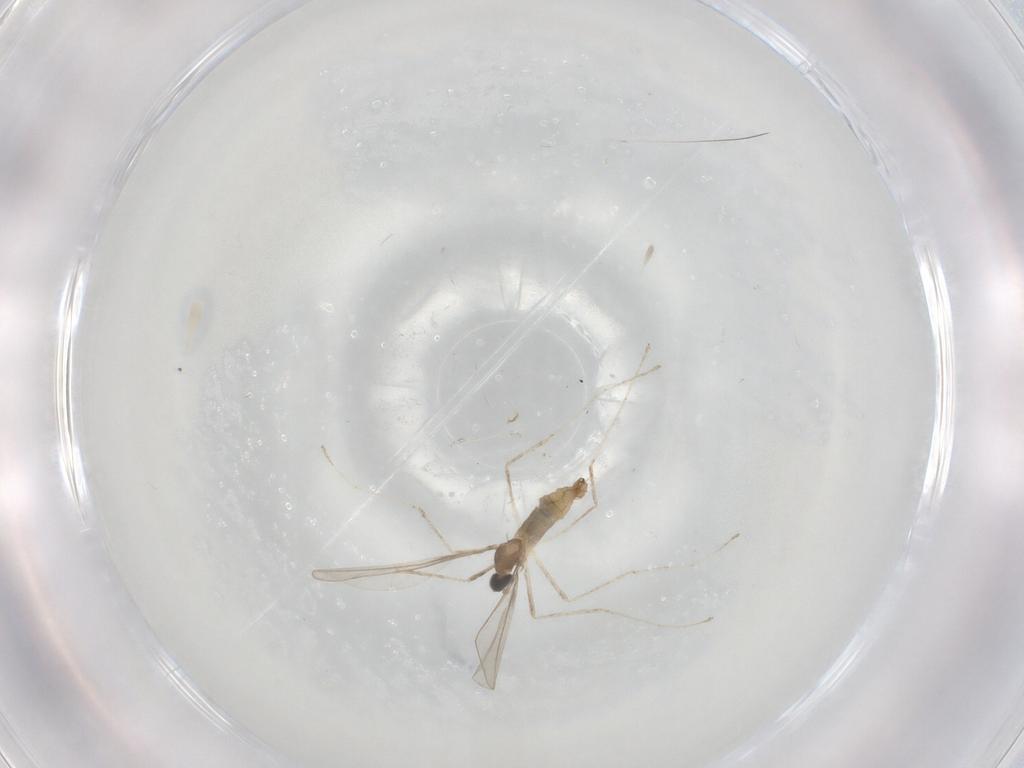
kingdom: Animalia
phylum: Arthropoda
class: Insecta
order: Diptera
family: Cecidomyiidae
